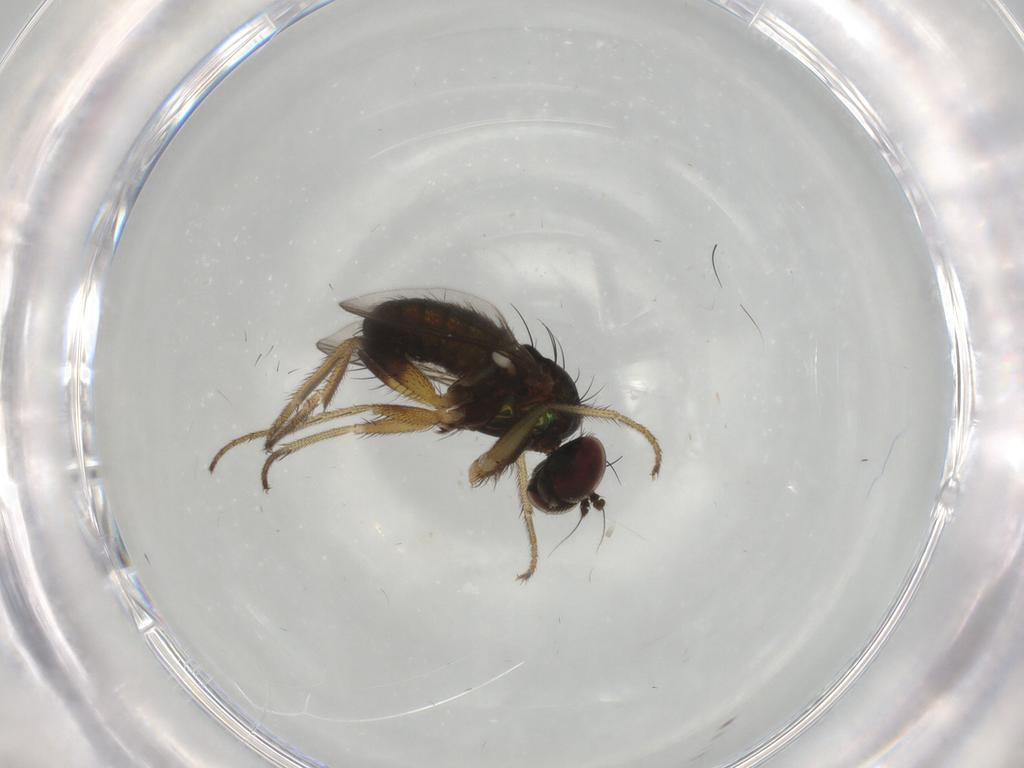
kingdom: Animalia
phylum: Arthropoda
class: Insecta
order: Diptera
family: Dolichopodidae
